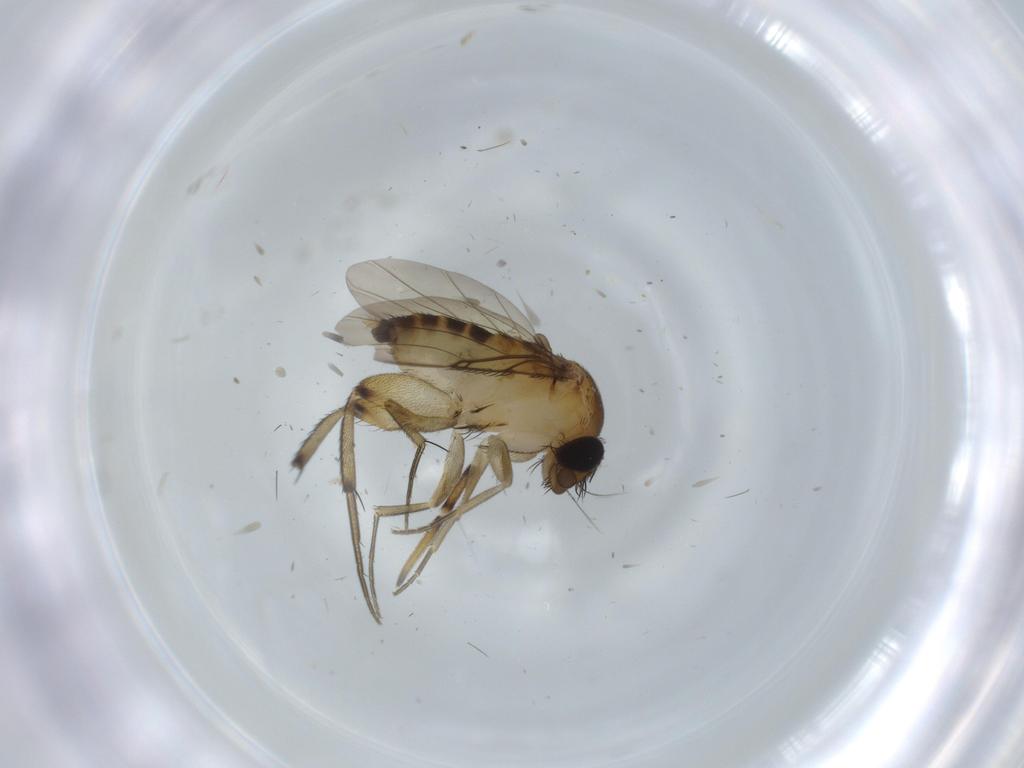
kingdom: Animalia
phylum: Arthropoda
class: Insecta
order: Diptera
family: Phoridae
